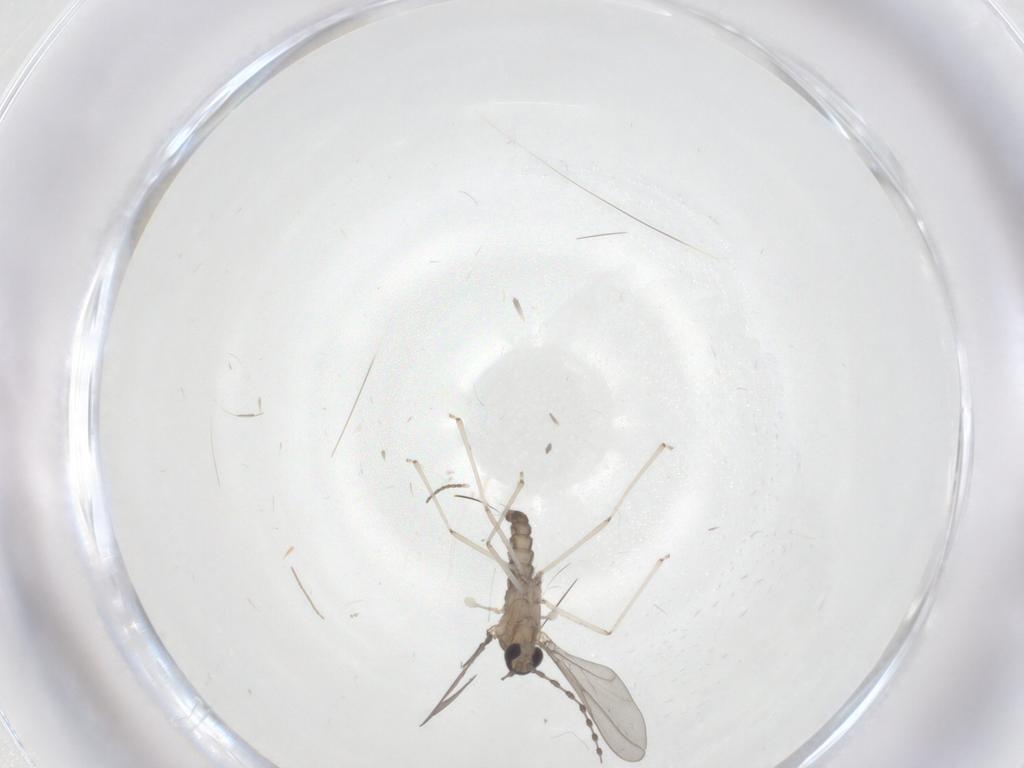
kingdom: Animalia
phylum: Arthropoda
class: Insecta
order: Diptera
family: Cecidomyiidae
